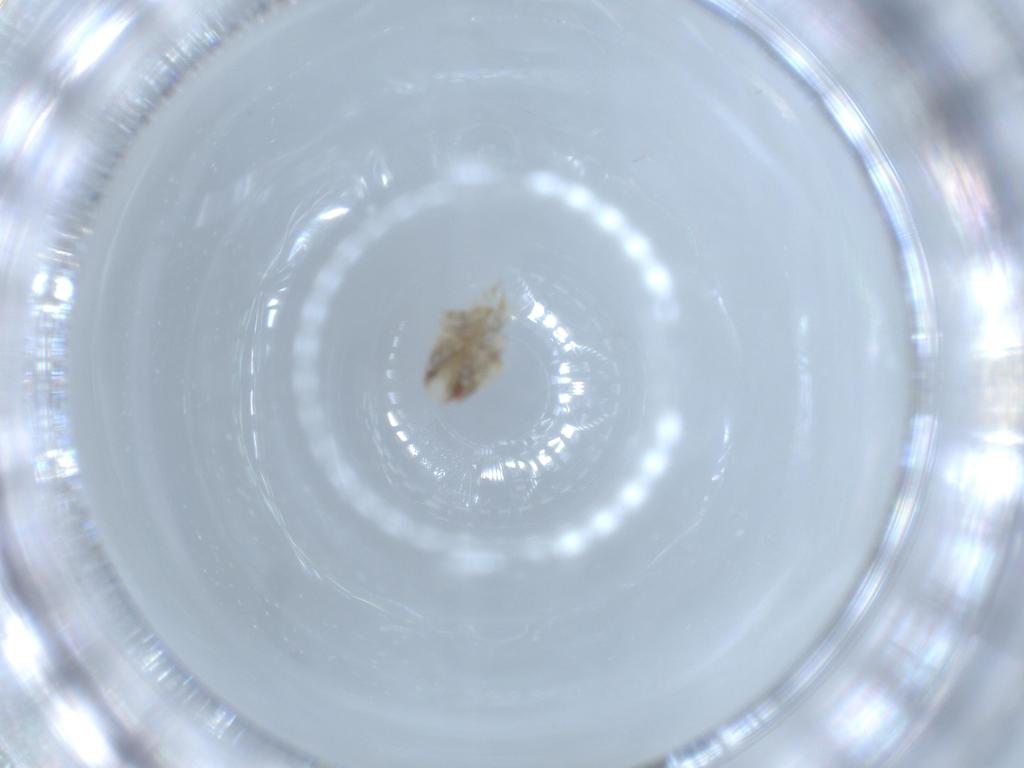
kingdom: Animalia
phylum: Arthropoda
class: Insecta
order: Hemiptera
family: Acanaloniidae
